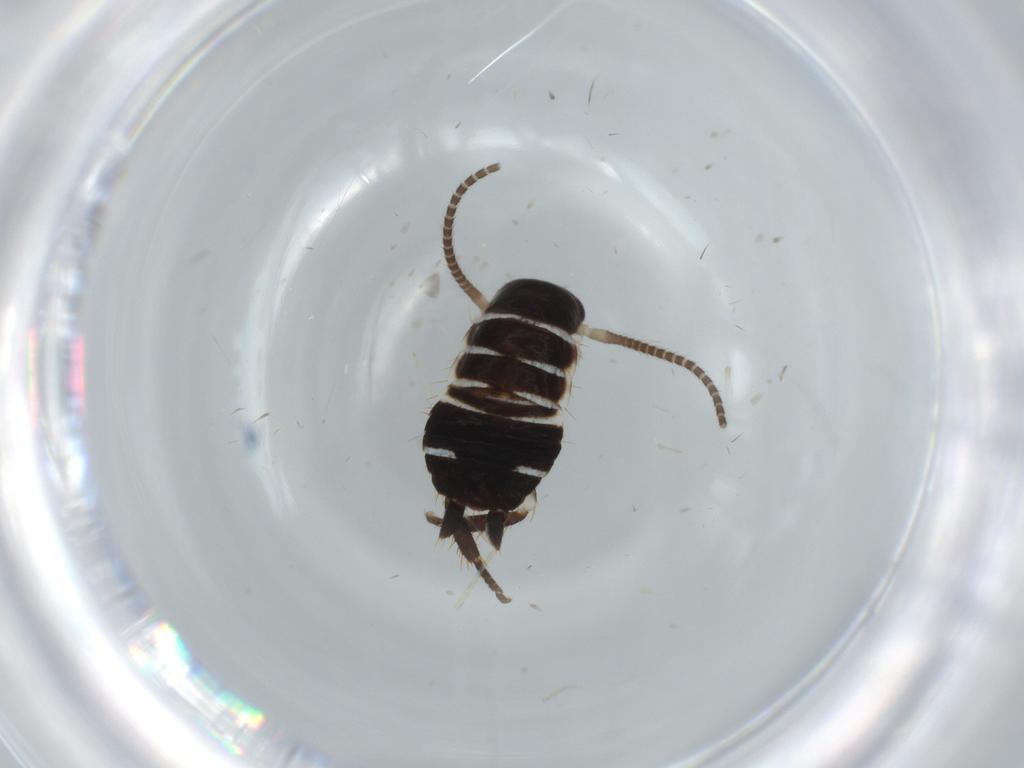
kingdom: Animalia
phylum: Arthropoda
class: Insecta
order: Blattodea
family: Ectobiidae
